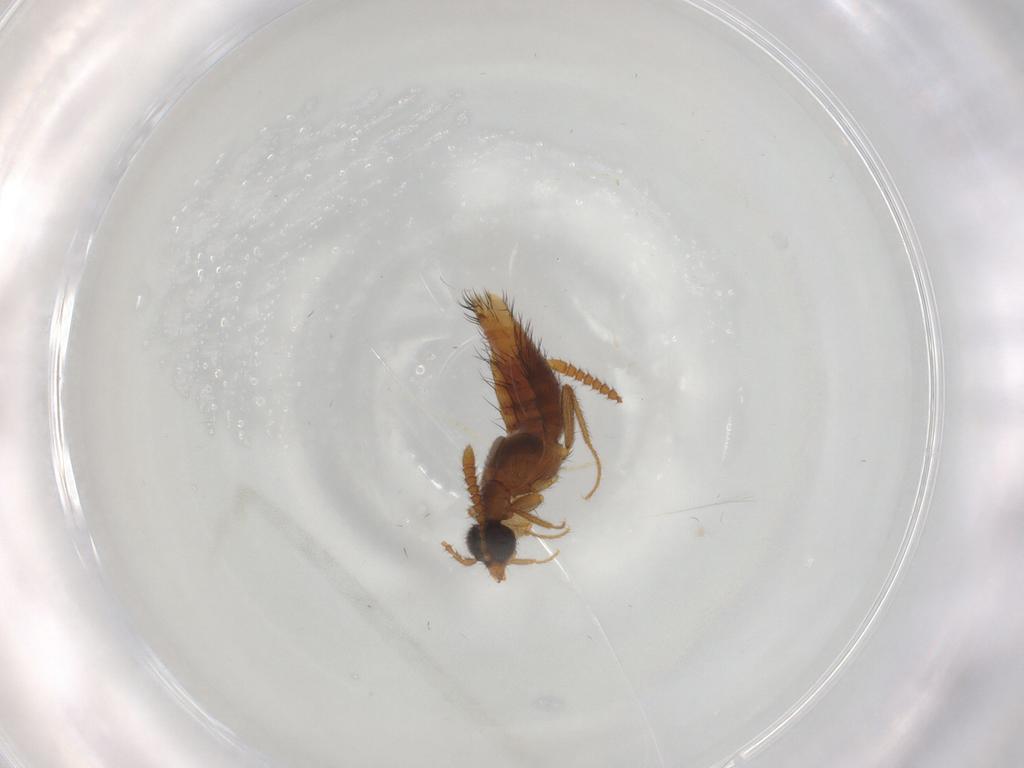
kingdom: Animalia
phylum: Arthropoda
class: Insecta
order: Coleoptera
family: Staphylinidae
